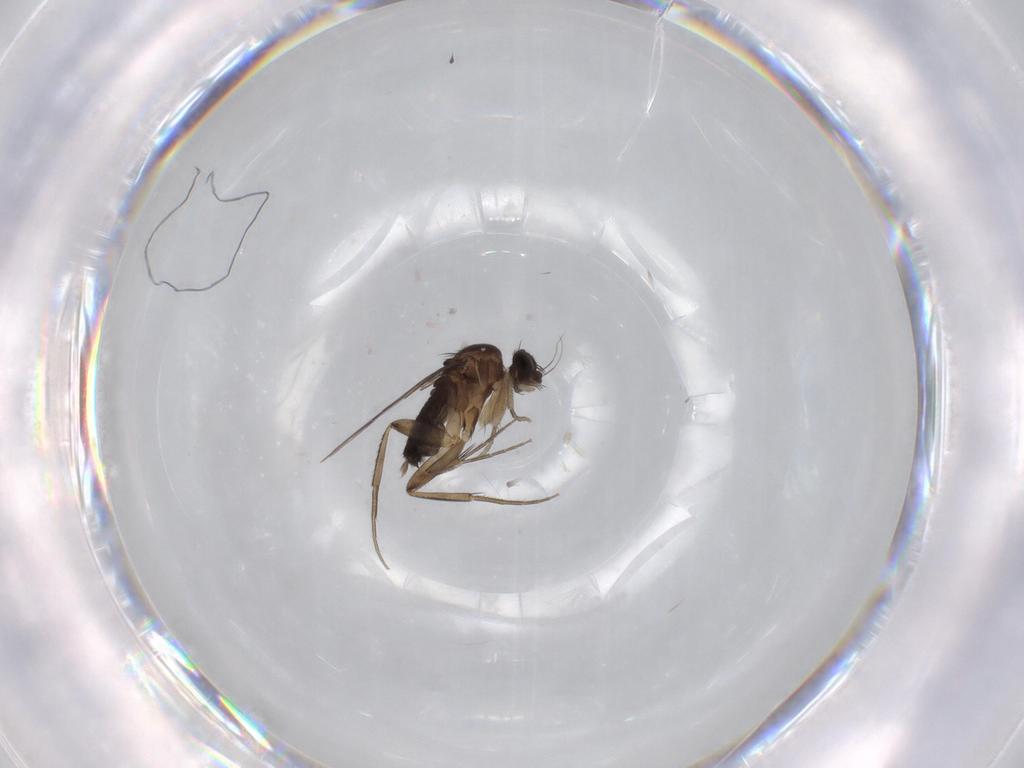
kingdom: Animalia
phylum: Arthropoda
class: Insecta
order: Diptera
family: Phoridae
